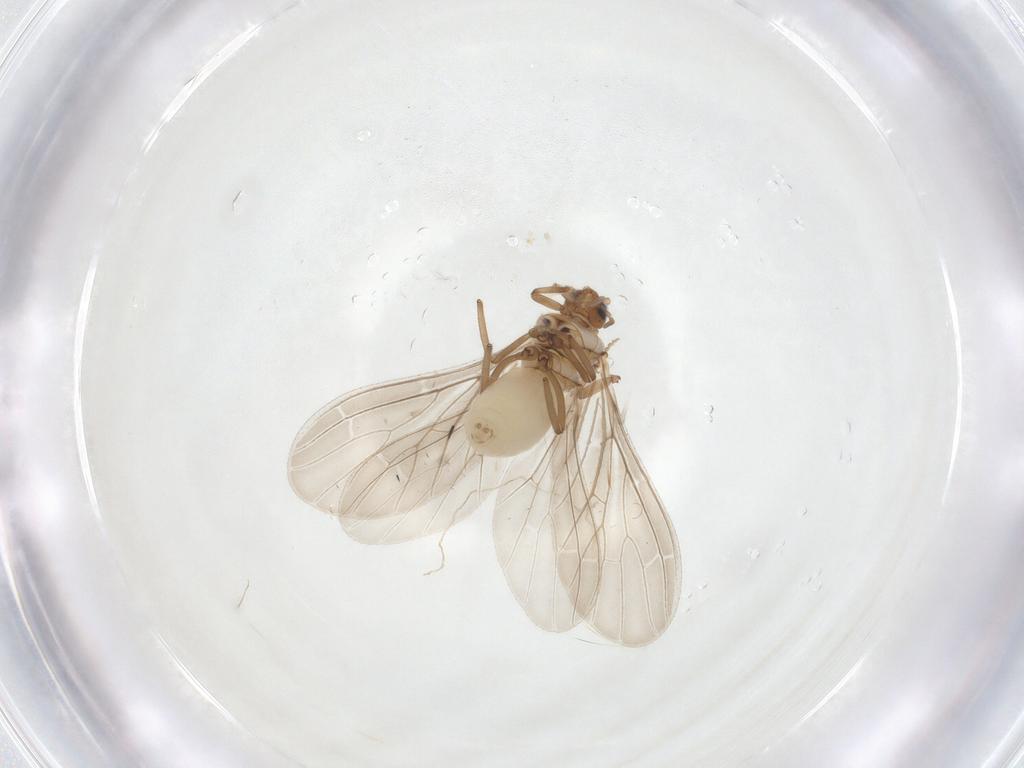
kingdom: Animalia
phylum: Arthropoda
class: Insecta
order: Neuroptera
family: Coniopterygidae
